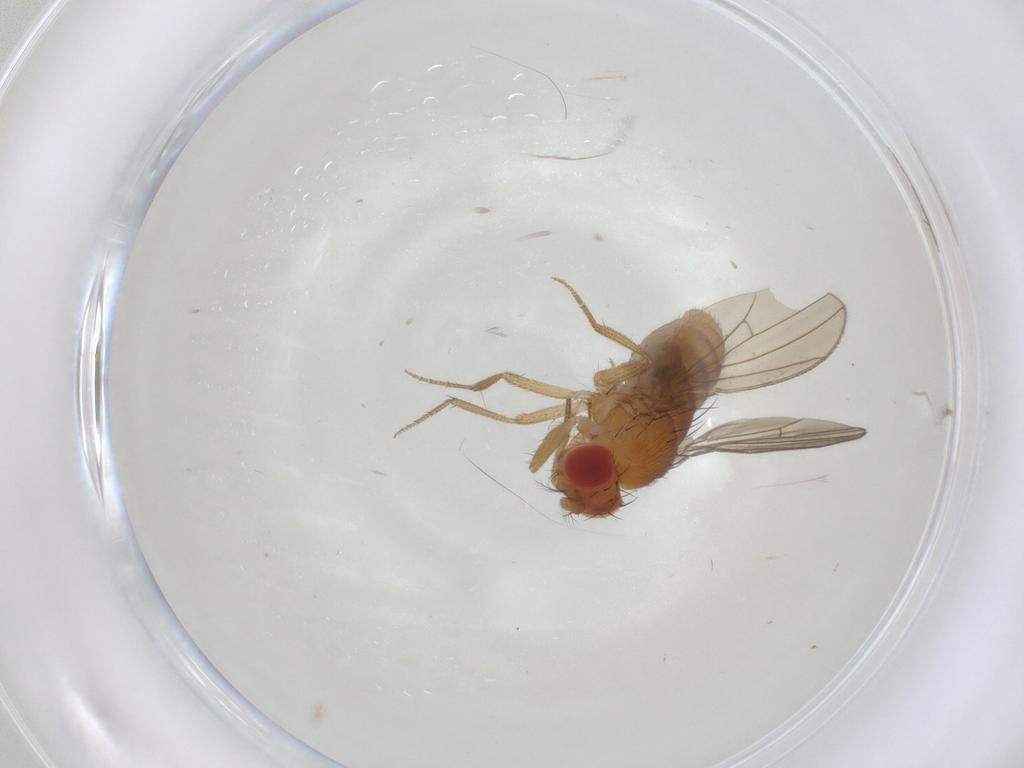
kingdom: Animalia
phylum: Arthropoda
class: Insecta
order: Diptera
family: Drosophilidae
